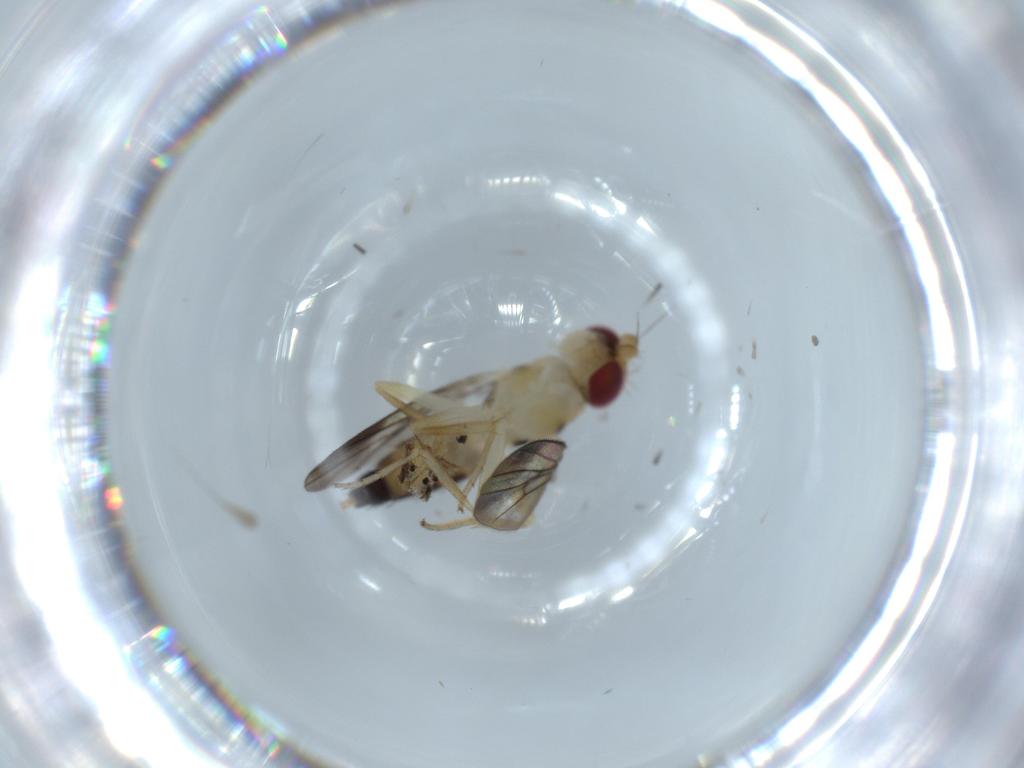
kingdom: Animalia
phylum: Arthropoda
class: Insecta
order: Diptera
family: Clusiidae
